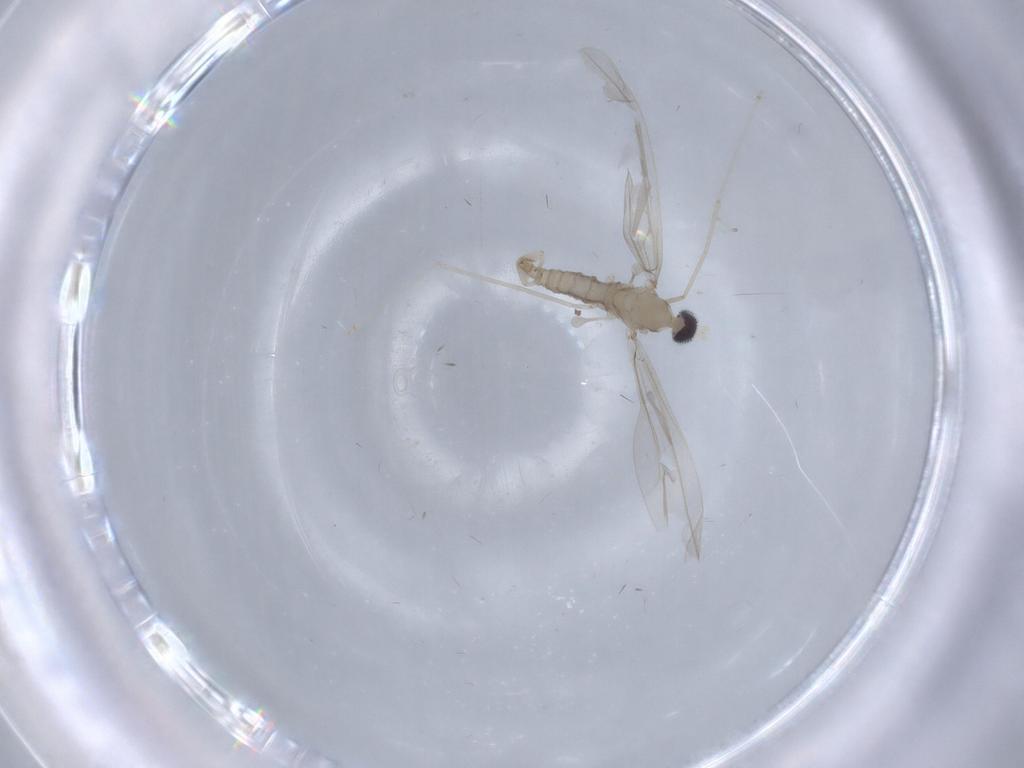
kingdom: Animalia
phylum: Arthropoda
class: Insecta
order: Diptera
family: Cecidomyiidae
